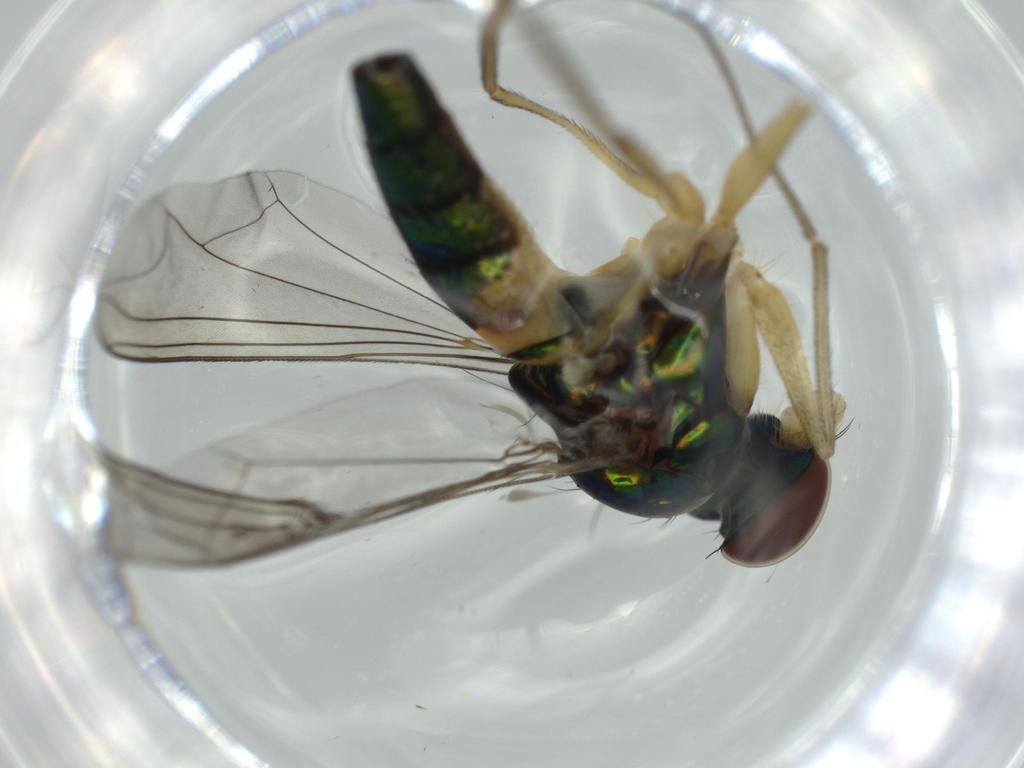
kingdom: Animalia
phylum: Arthropoda
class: Insecta
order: Diptera
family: Dolichopodidae
